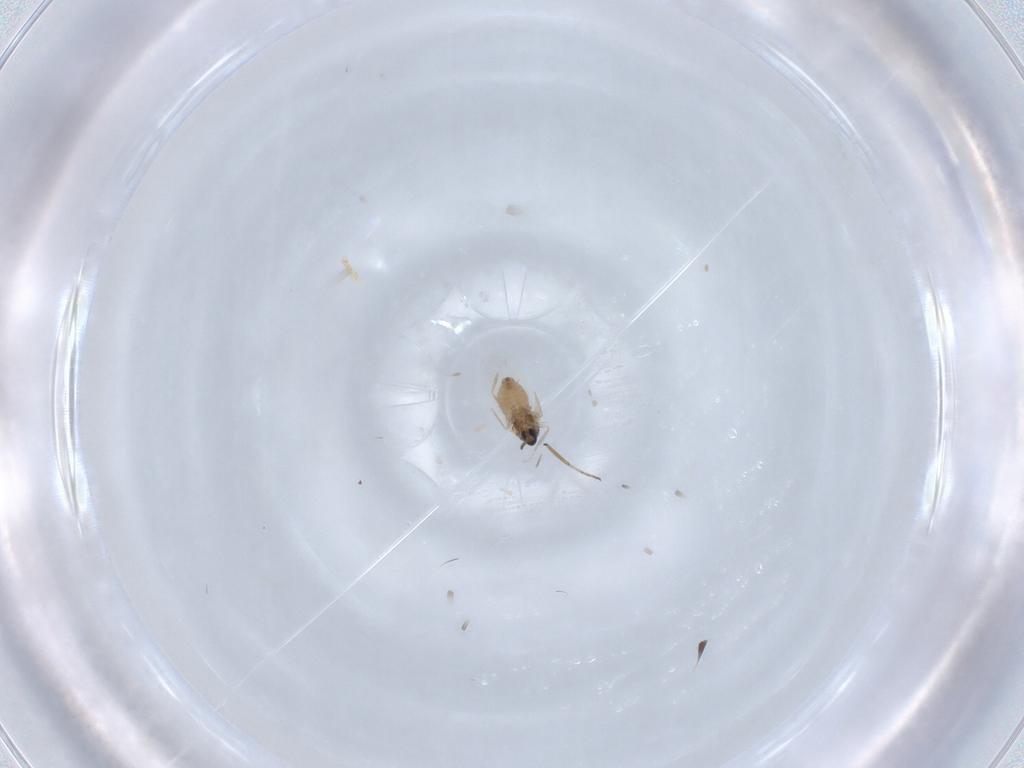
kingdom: Animalia
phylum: Arthropoda
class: Insecta
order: Diptera
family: Cecidomyiidae
